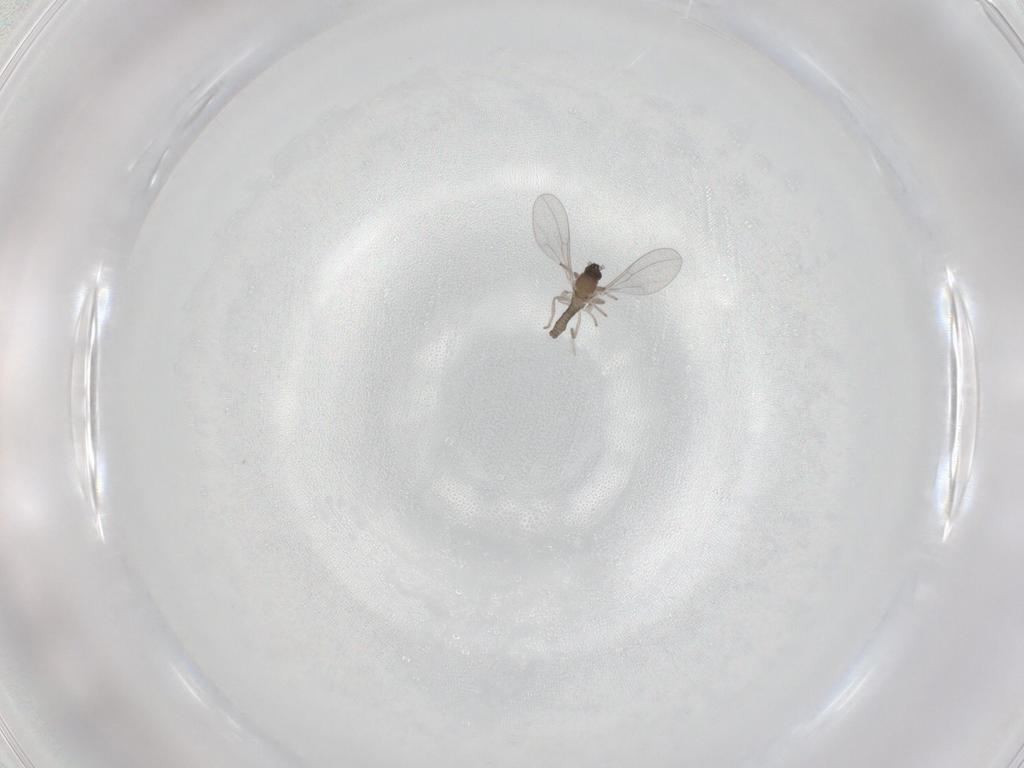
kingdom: Animalia
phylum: Arthropoda
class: Insecta
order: Diptera
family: Cecidomyiidae
